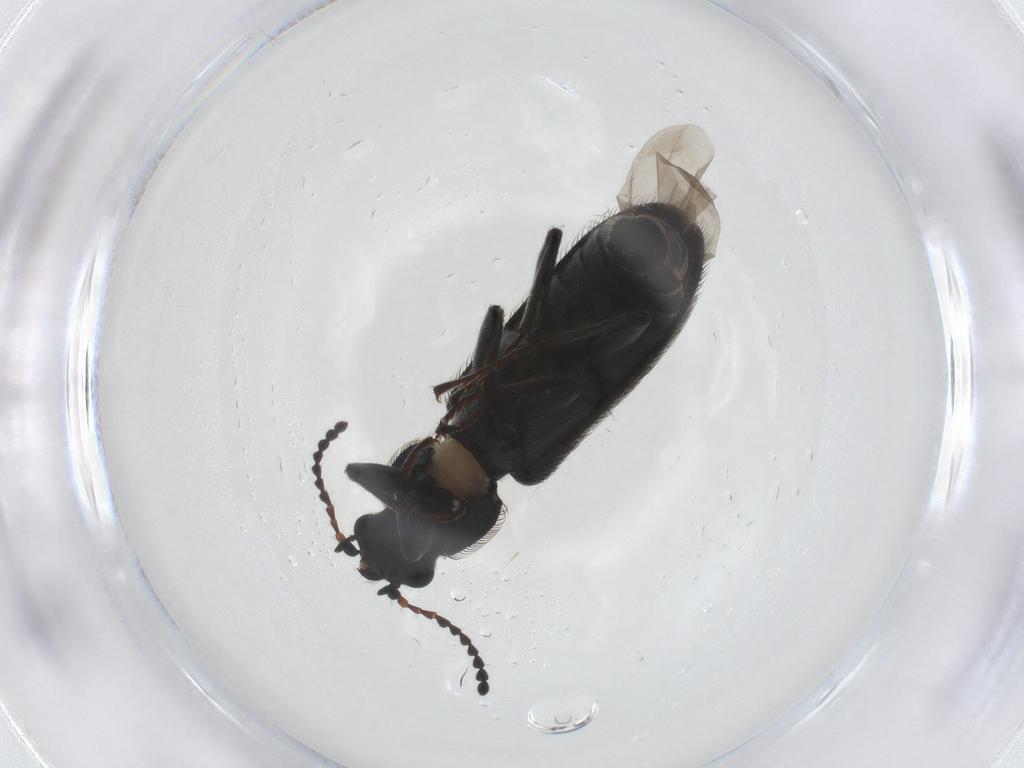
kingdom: Animalia
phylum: Arthropoda
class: Insecta
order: Coleoptera
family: Melyridae
